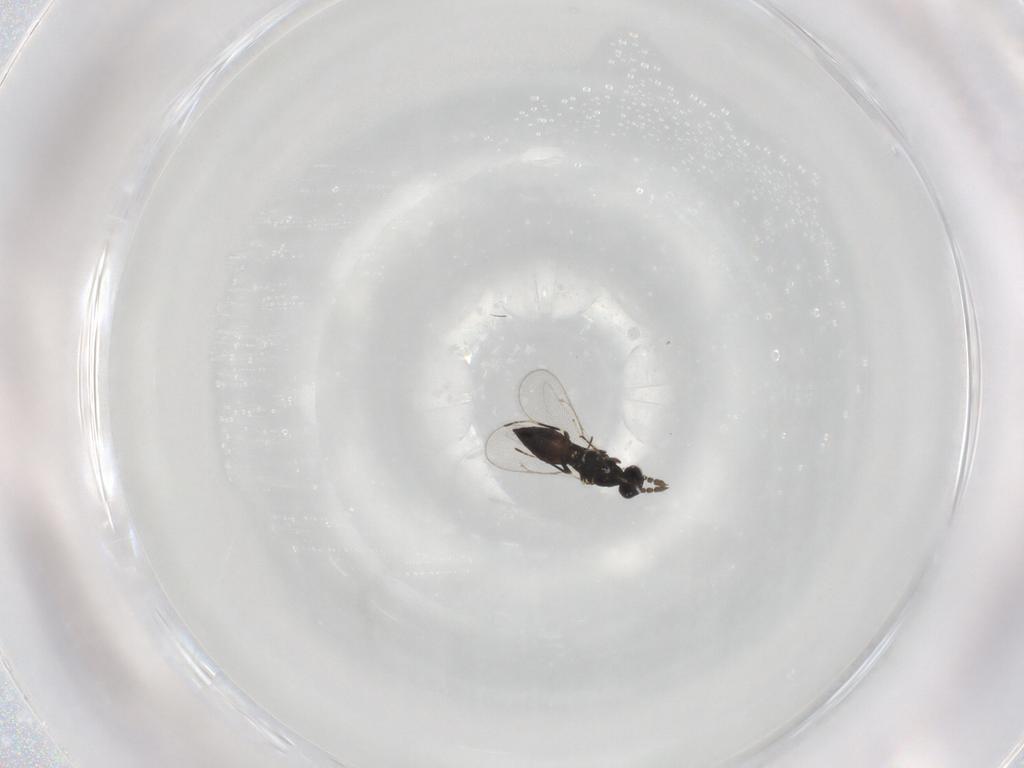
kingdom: Animalia
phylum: Arthropoda
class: Insecta
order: Hymenoptera
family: Eulophidae
